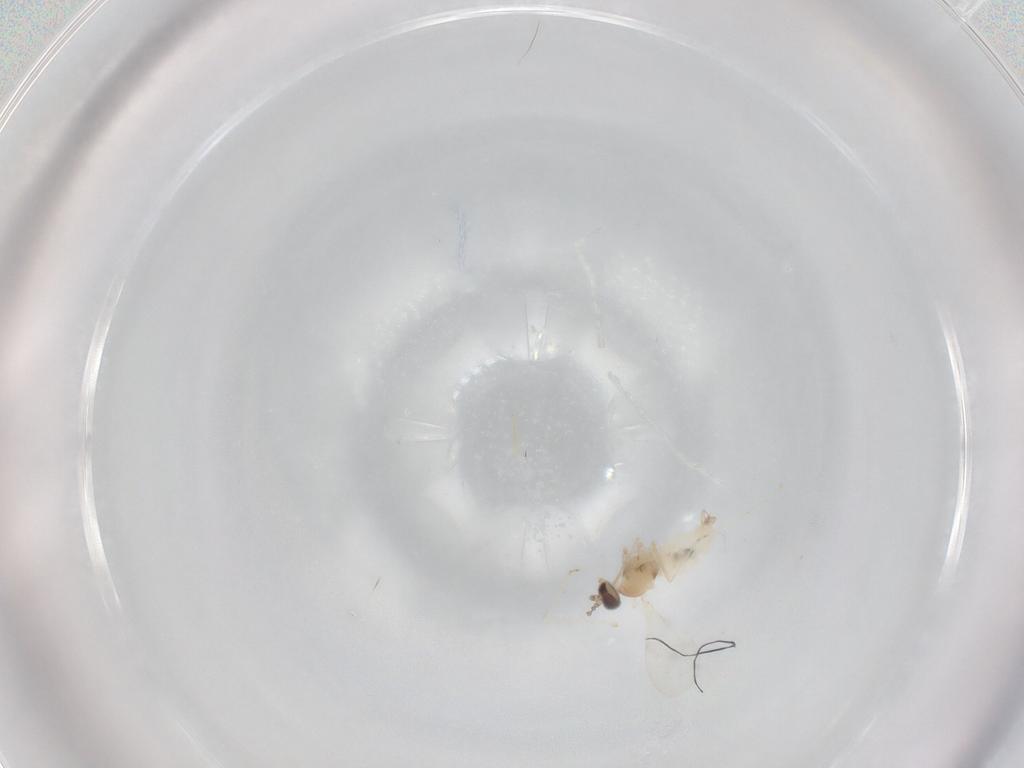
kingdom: Animalia
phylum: Arthropoda
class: Insecta
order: Diptera
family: Cecidomyiidae
